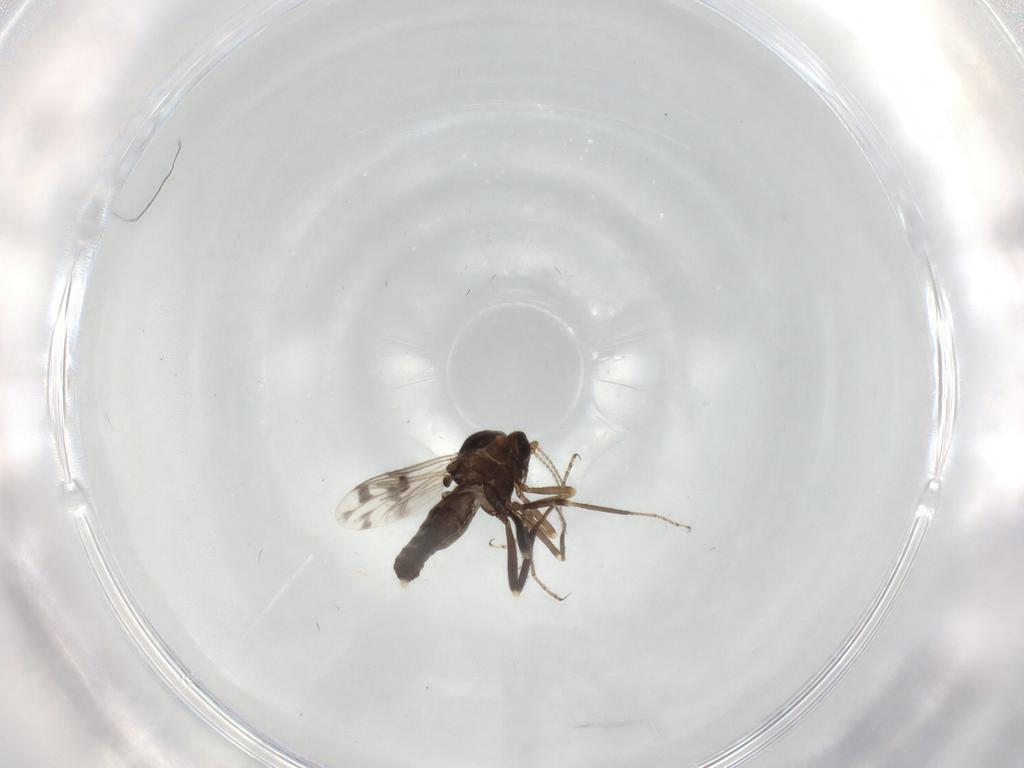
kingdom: Animalia
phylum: Arthropoda
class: Insecta
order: Diptera
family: Ceratopogonidae
